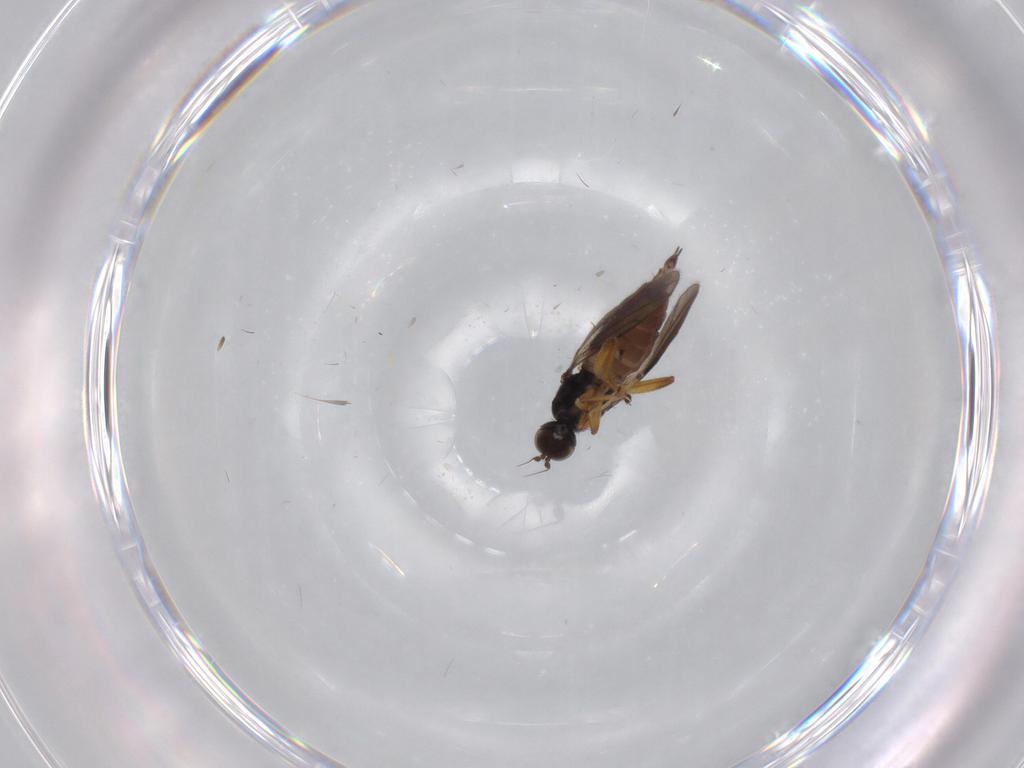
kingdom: Animalia
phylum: Arthropoda
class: Insecta
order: Diptera
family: Hybotidae
